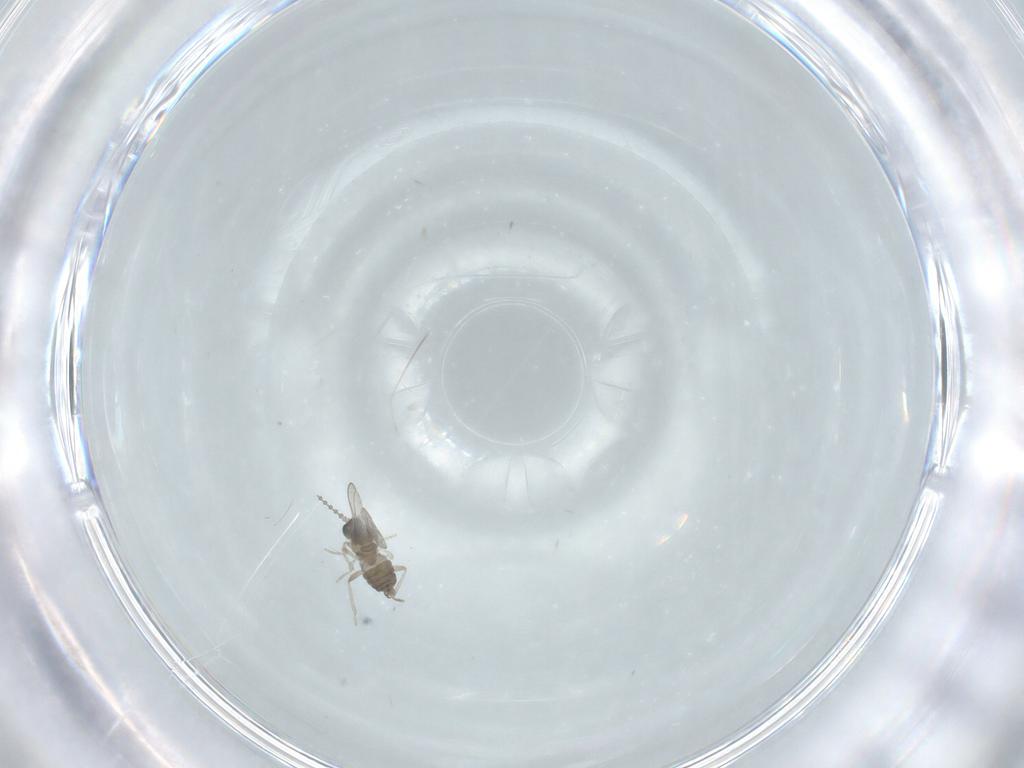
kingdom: Animalia
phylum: Arthropoda
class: Insecta
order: Diptera
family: Cecidomyiidae
